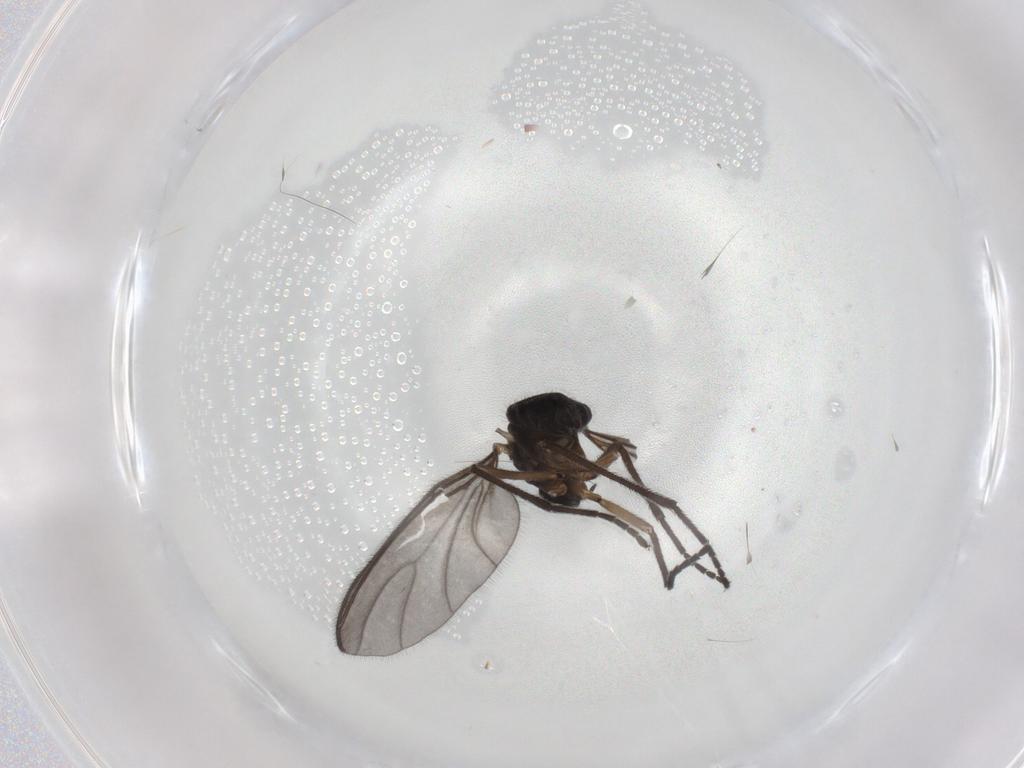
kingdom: Animalia
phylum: Arthropoda
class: Insecta
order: Diptera
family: Sciaridae
